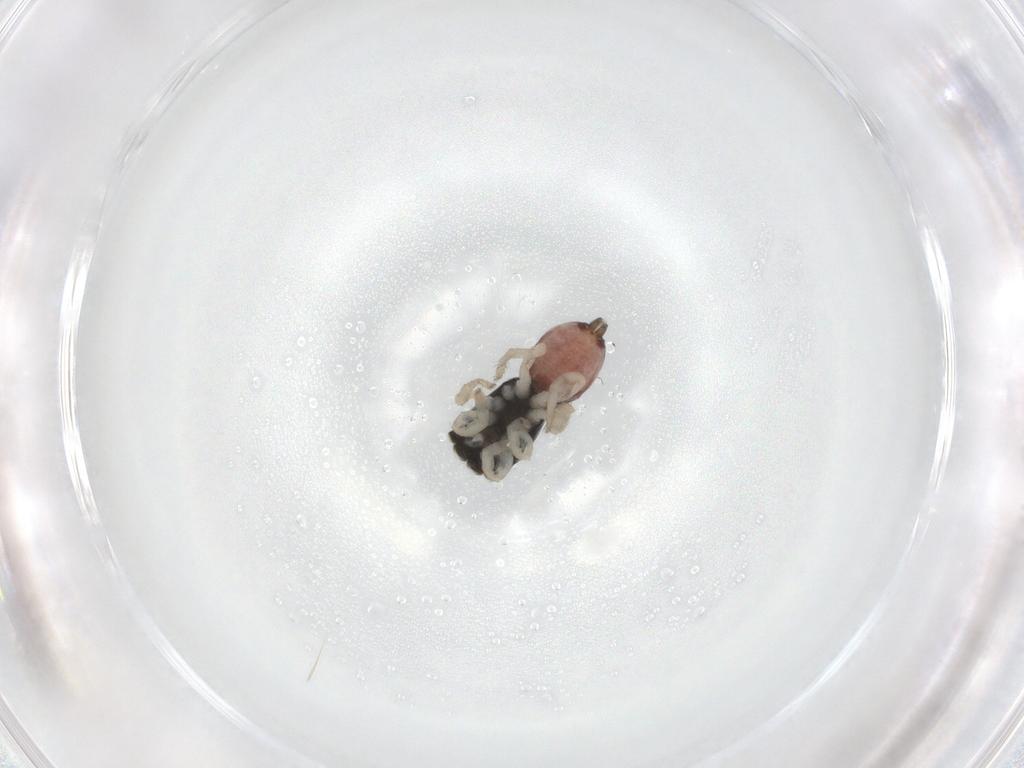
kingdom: Animalia
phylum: Arthropoda
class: Arachnida
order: Araneae
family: Salticidae
